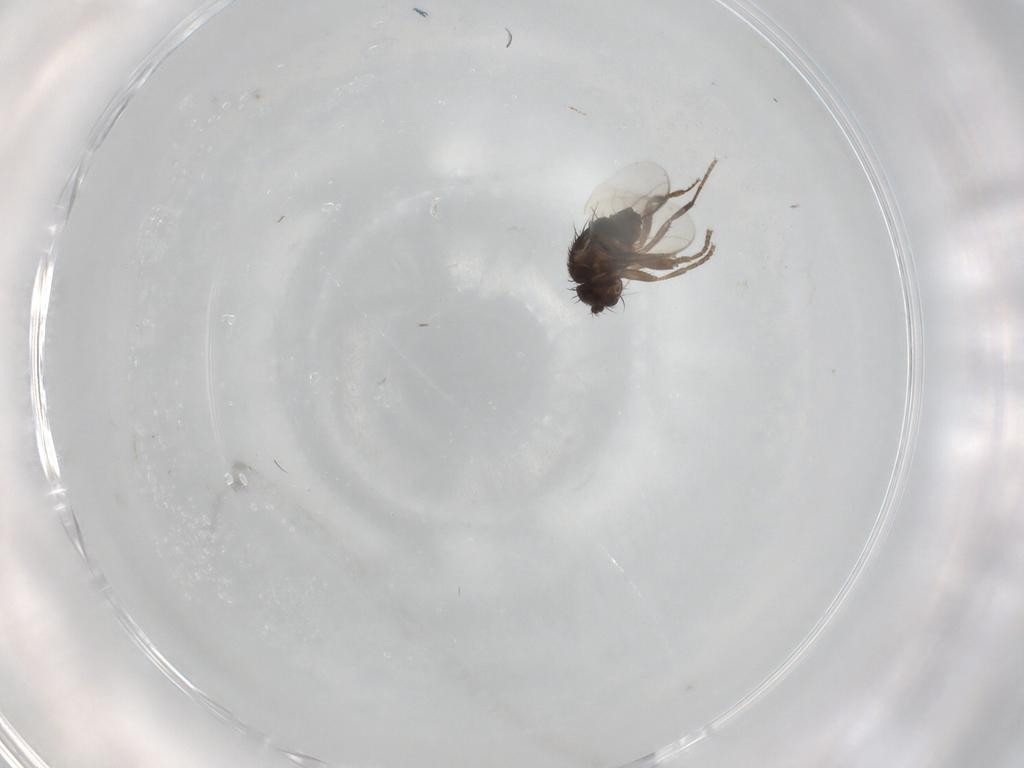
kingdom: Animalia
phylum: Arthropoda
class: Insecta
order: Diptera
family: Sphaeroceridae
